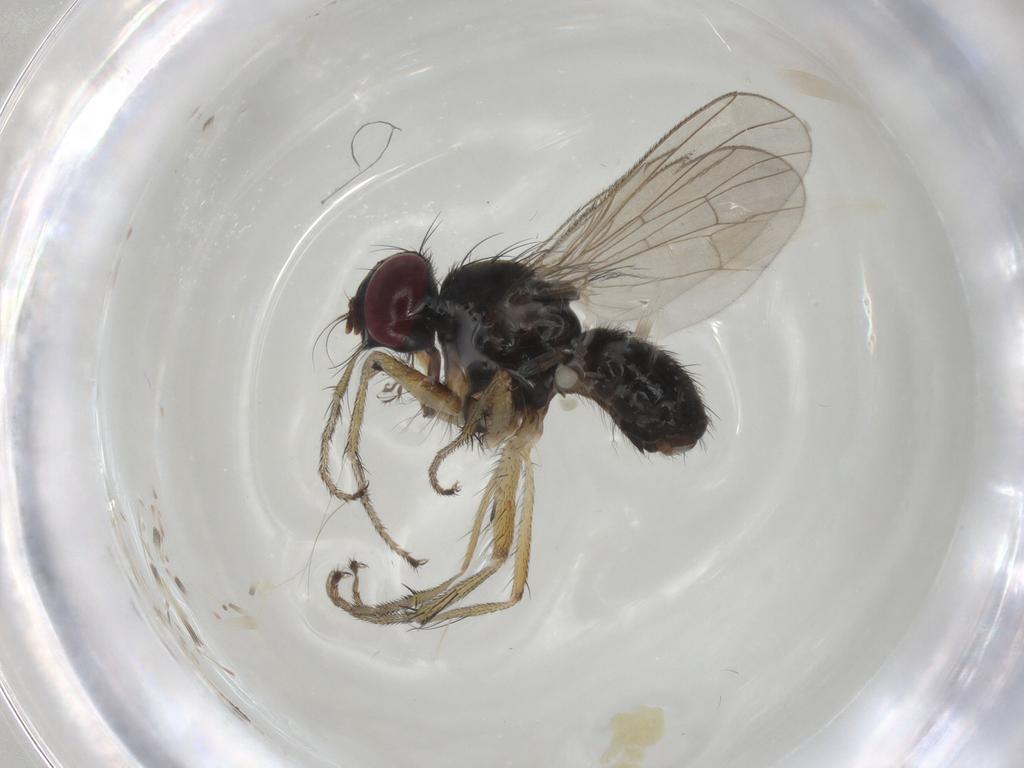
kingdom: Animalia
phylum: Arthropoda
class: Insecta
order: Diptera
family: Muscidae
